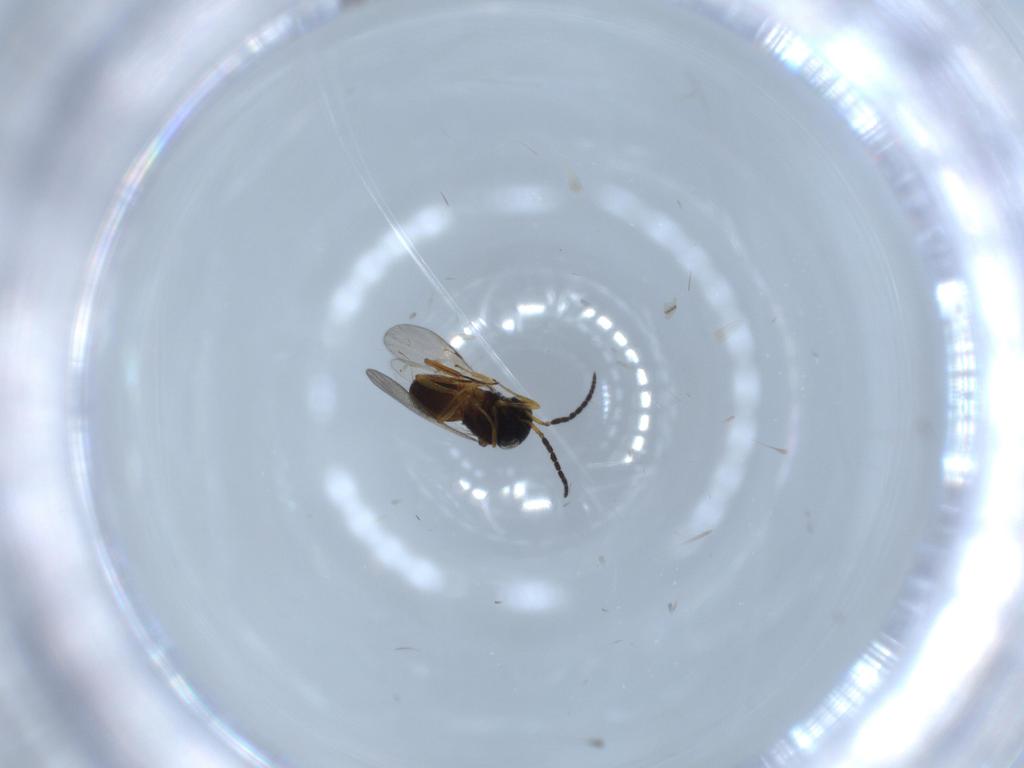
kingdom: Animalia
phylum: Arthropoda
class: Insecta
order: Coleoptera
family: Curculionidae
